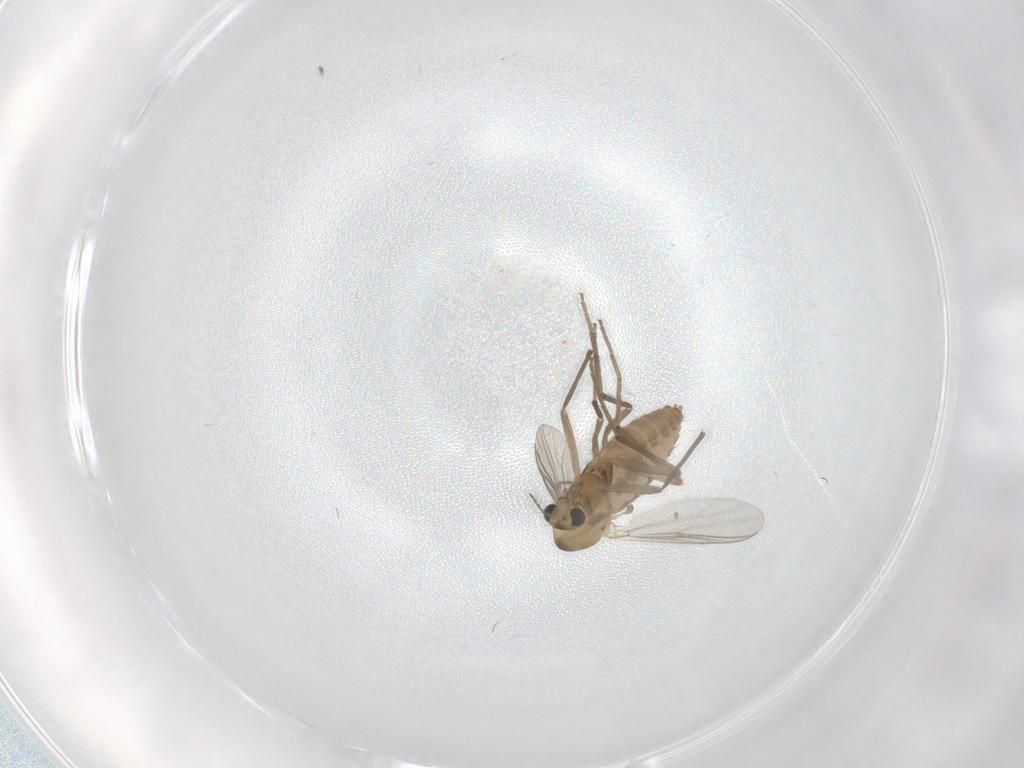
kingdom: Animalia
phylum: Arthropoda
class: Insecta
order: Diptera
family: Chironomidae
